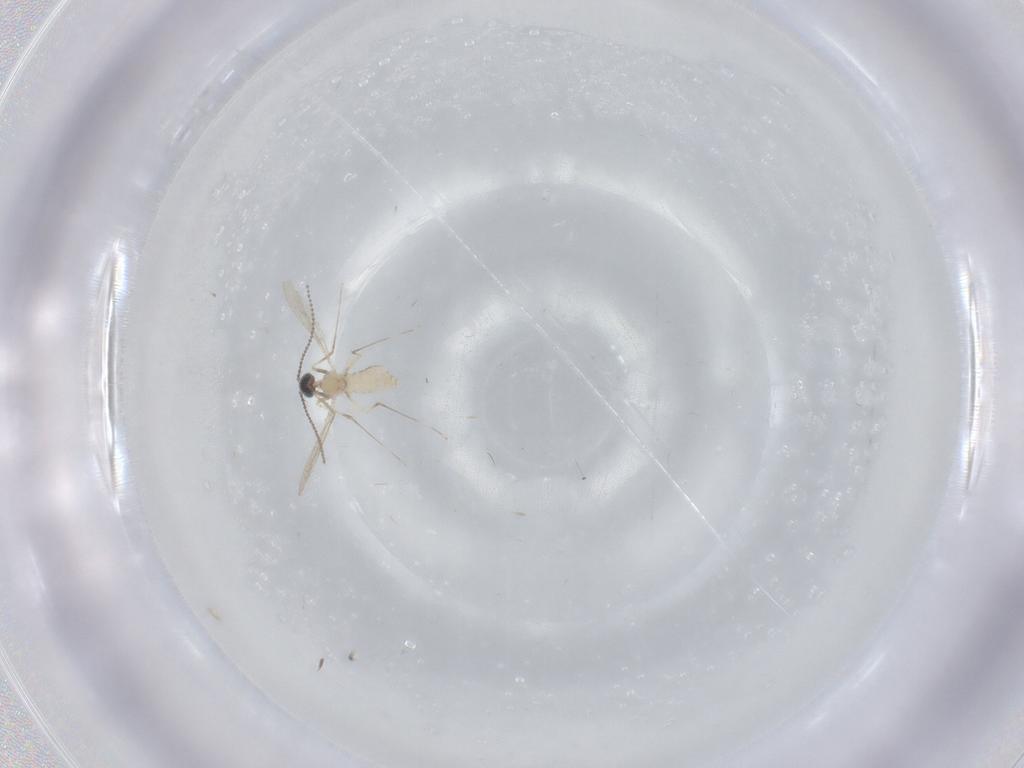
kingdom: Animalia
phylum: Arthropoda
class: Insecta
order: Diptera
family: Cecidomyiidae
